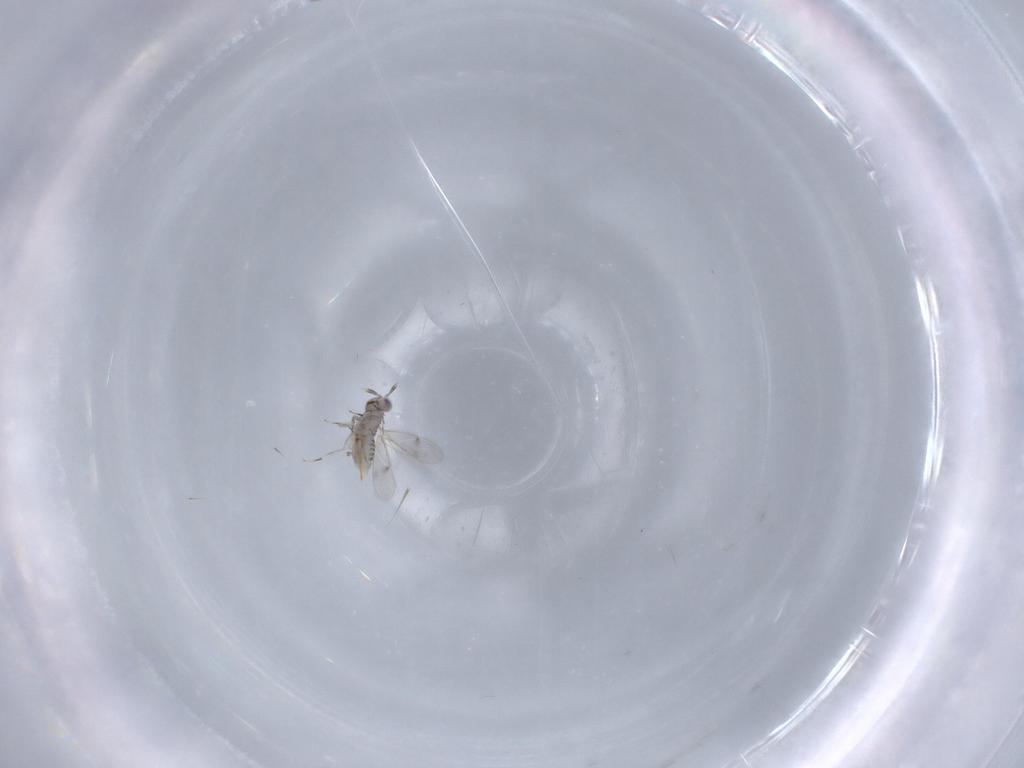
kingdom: Animalia
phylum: Arthropoda
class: Insecta
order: Hymenoptera
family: Aphelinidae
